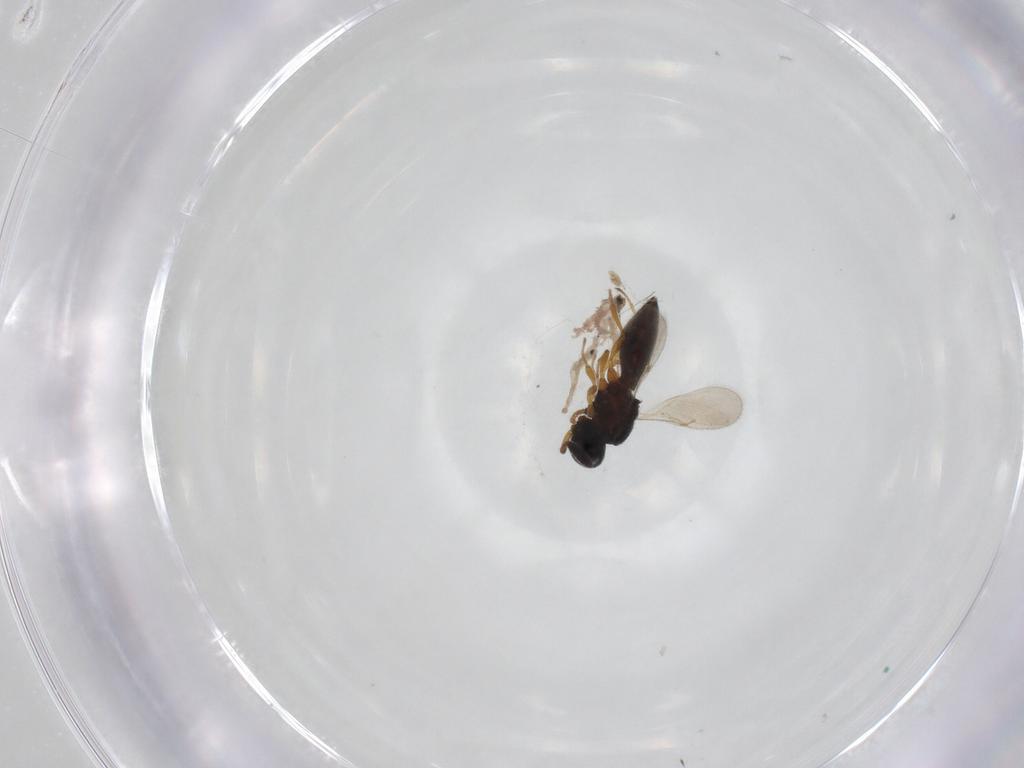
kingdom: Animalia
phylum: Arthropoda
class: Insecta
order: Hymenoptera
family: Scelionidae
